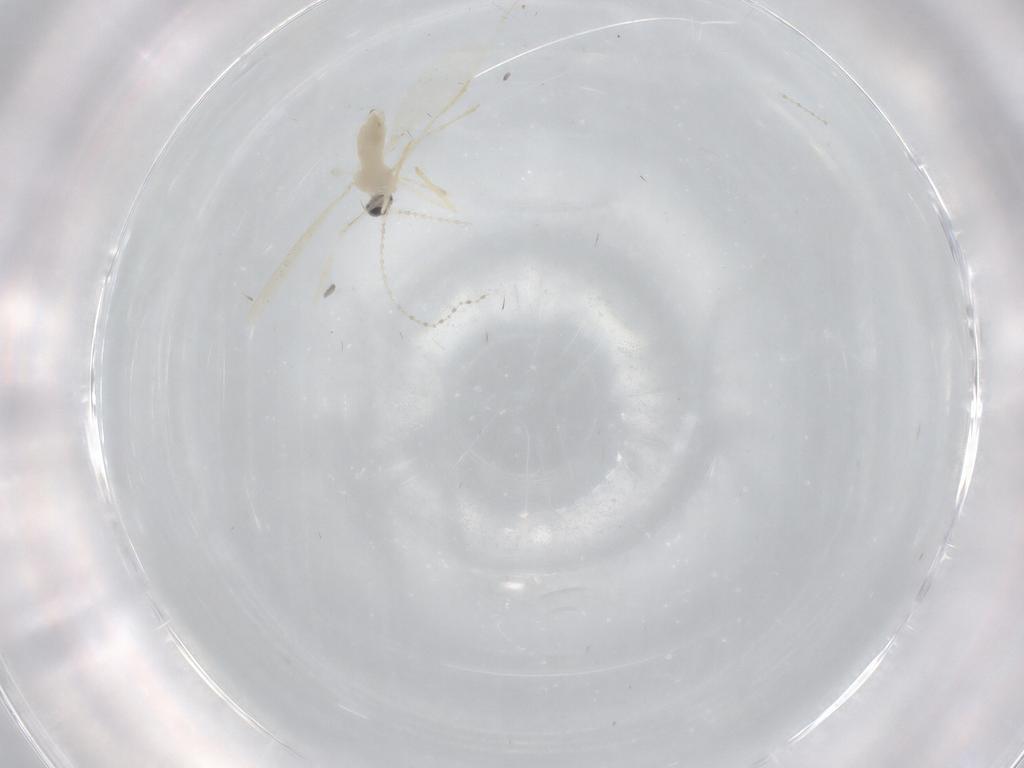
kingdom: Animalia
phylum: Arthropoda
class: Insecta
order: Diptera
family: Cecidomyiidae
